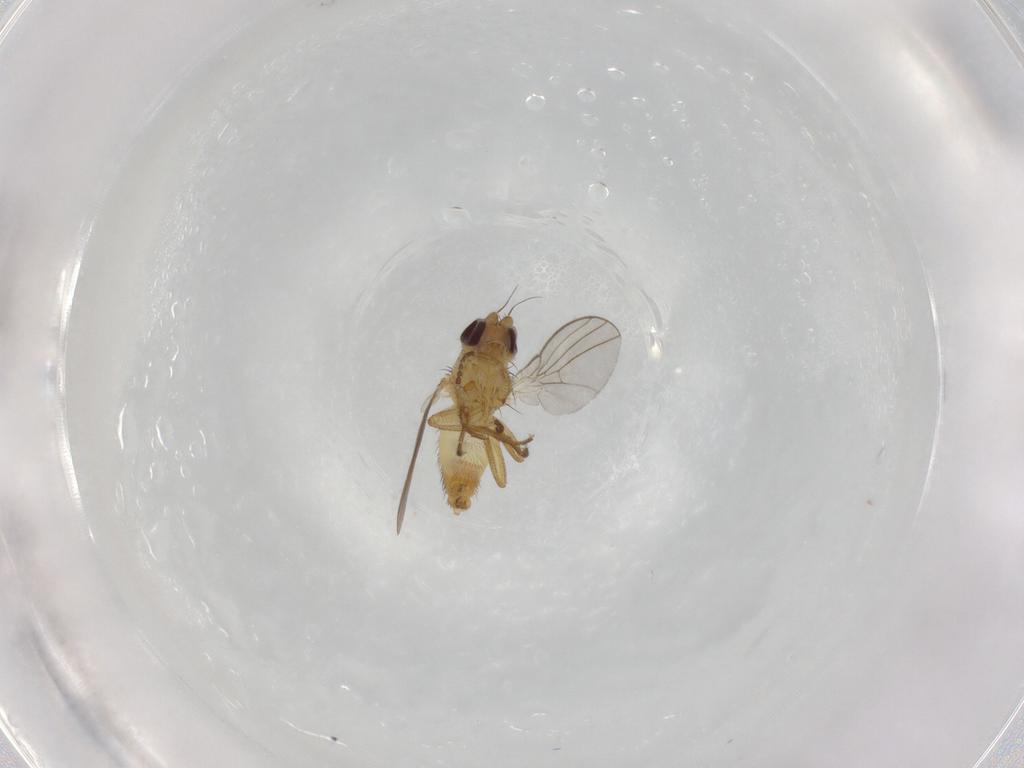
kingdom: Animalia
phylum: Arthropoda
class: Insecta
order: Diptera
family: Agromyzidae
